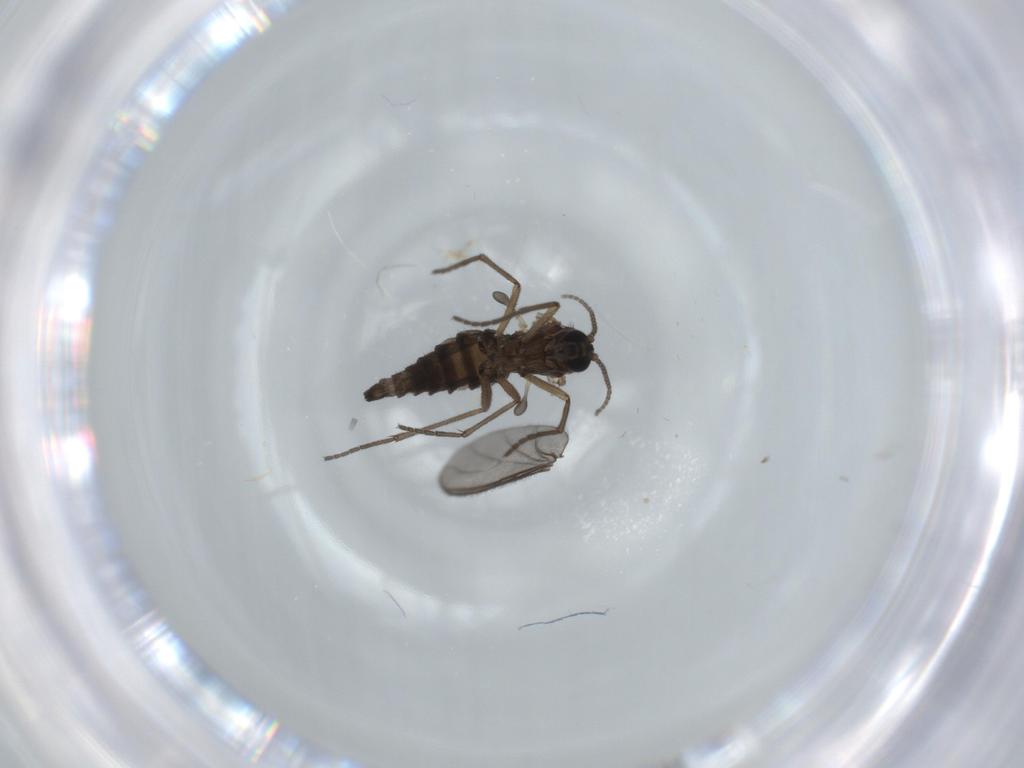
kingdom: Animalia
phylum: Arthropoda
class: Insecta
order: Diptera
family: Sciaridae
